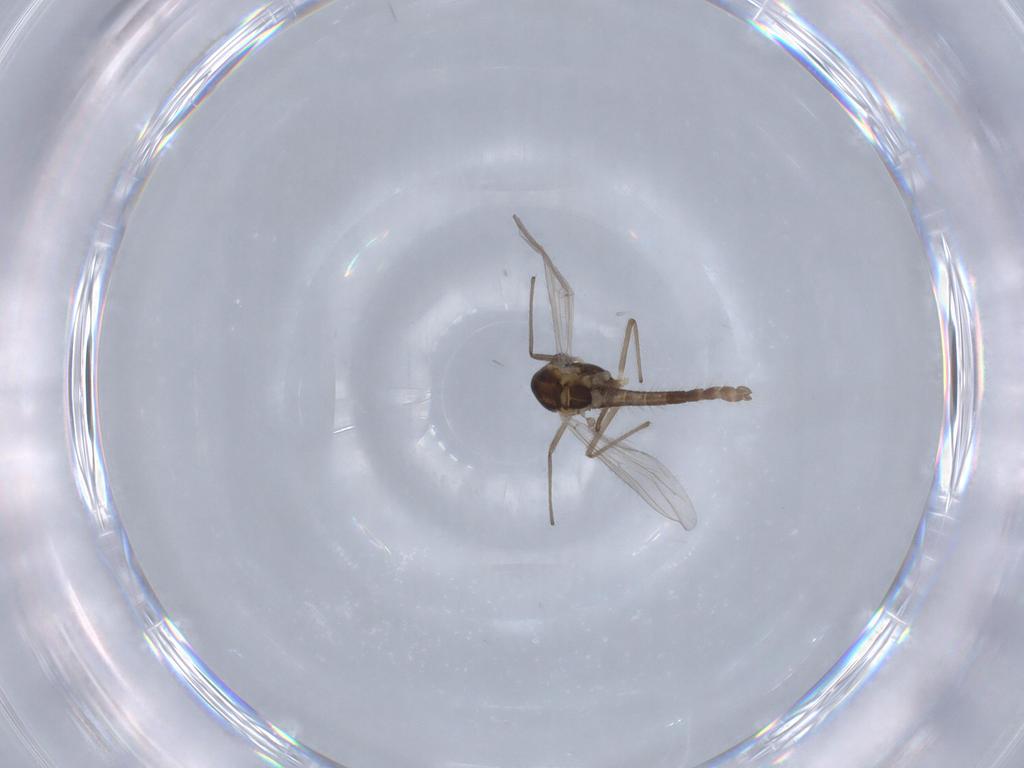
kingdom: Animalia
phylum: Arthropoda
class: Insecta
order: Diptera
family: Chironomidae
